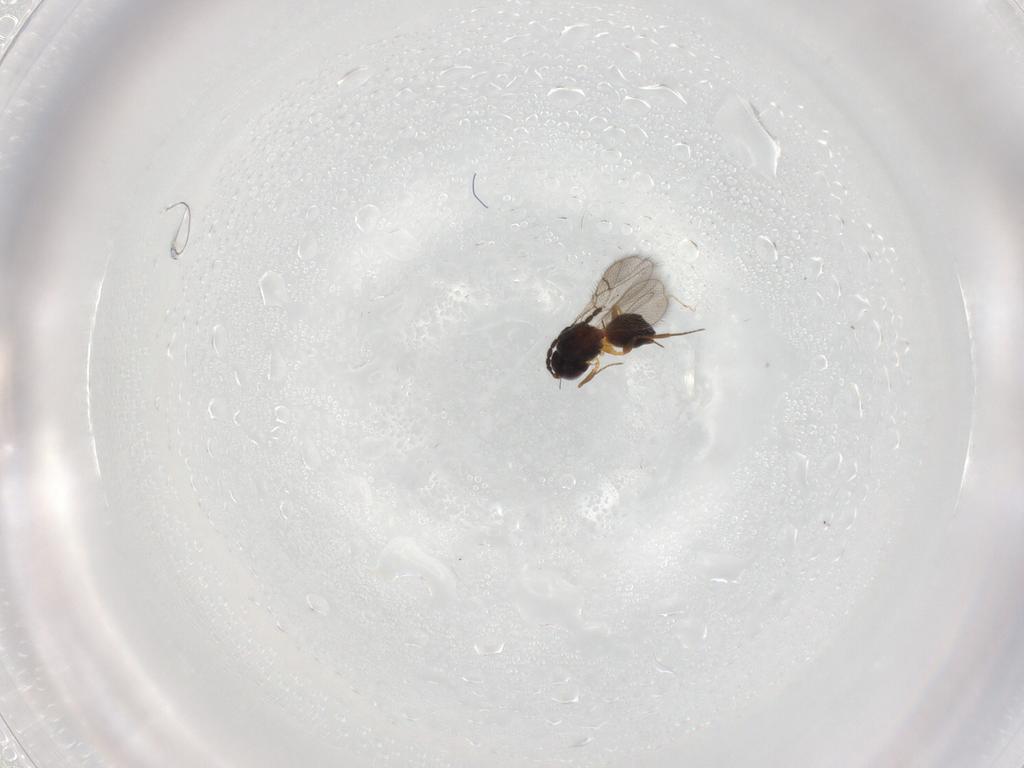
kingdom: Animalia
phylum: Arthropoda
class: Insecta
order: Hymenoptera
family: Figitidae
